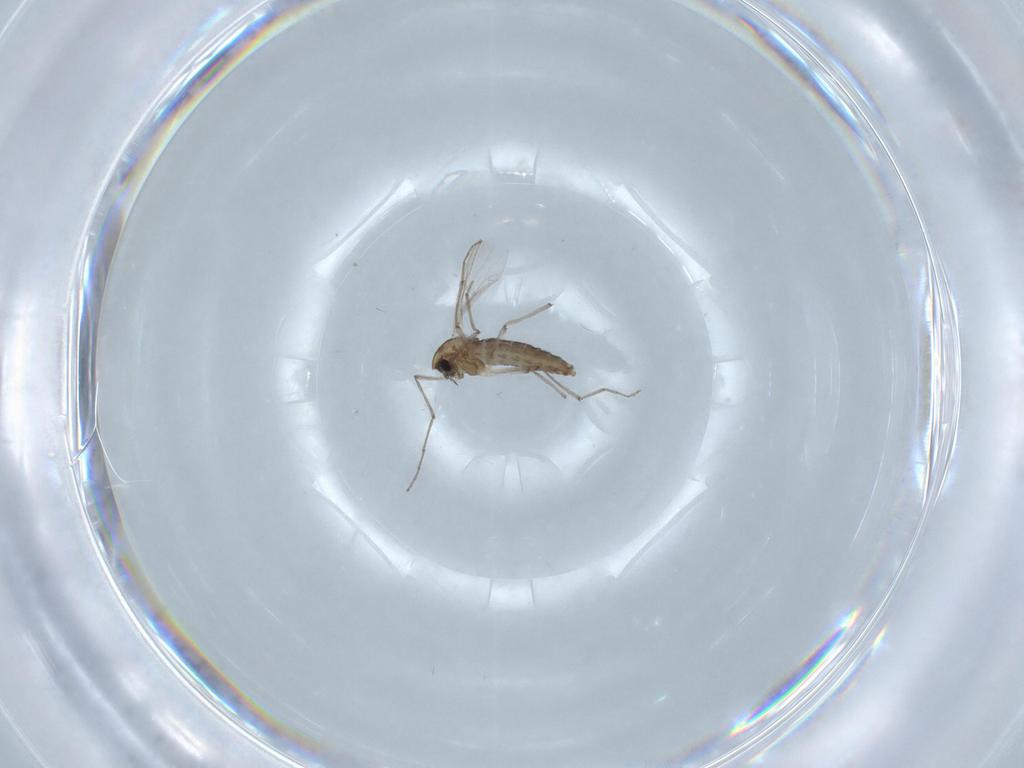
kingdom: Animalia
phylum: Arthropoda
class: Insecta
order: Diptera
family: Chironomidae
